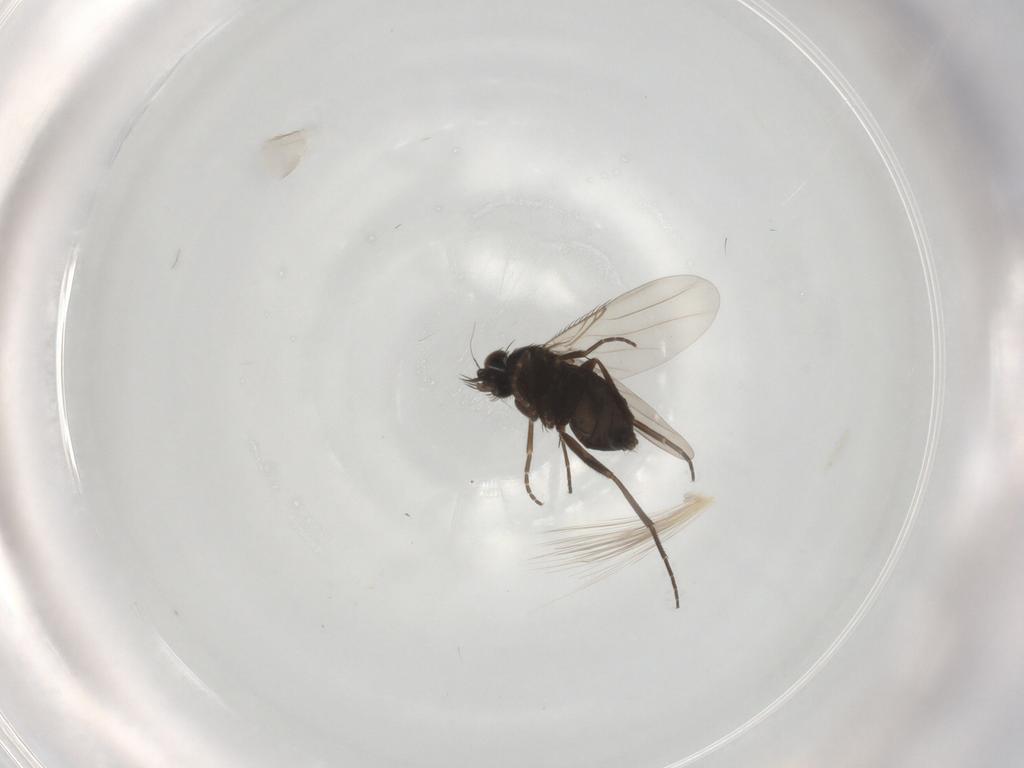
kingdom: Animalia
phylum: Arthropoda
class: Insecta
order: Diptera
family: Phoridae
